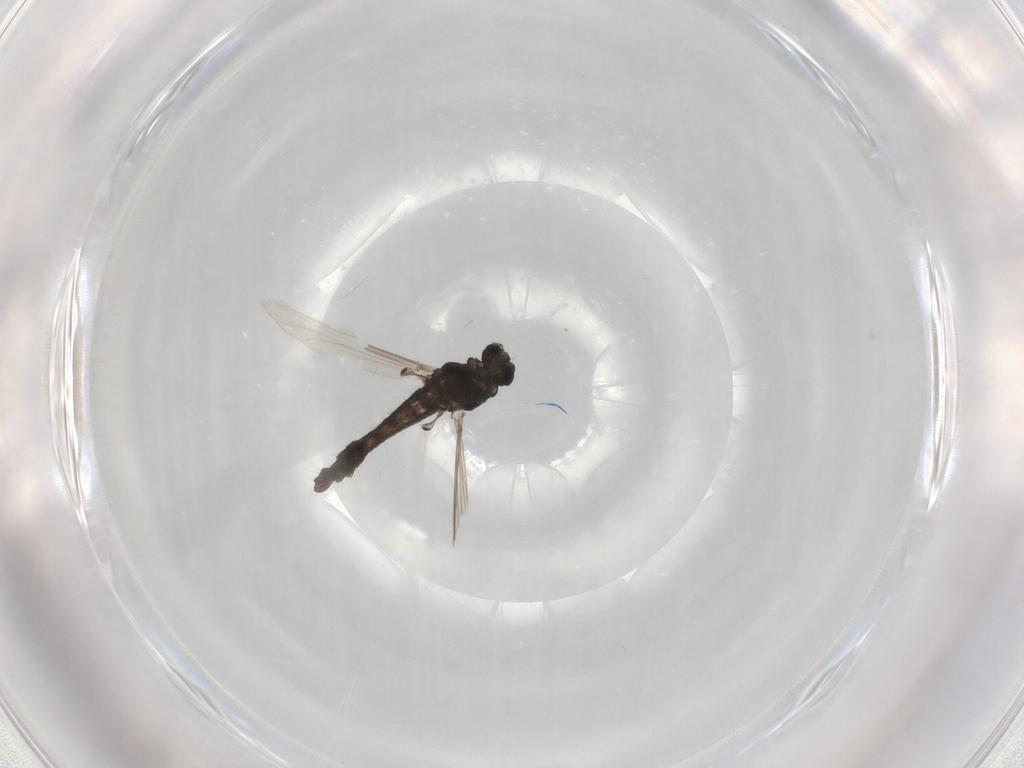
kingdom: Animalia
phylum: Arthropoda
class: Insecta
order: Diptera
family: Chironomidae
